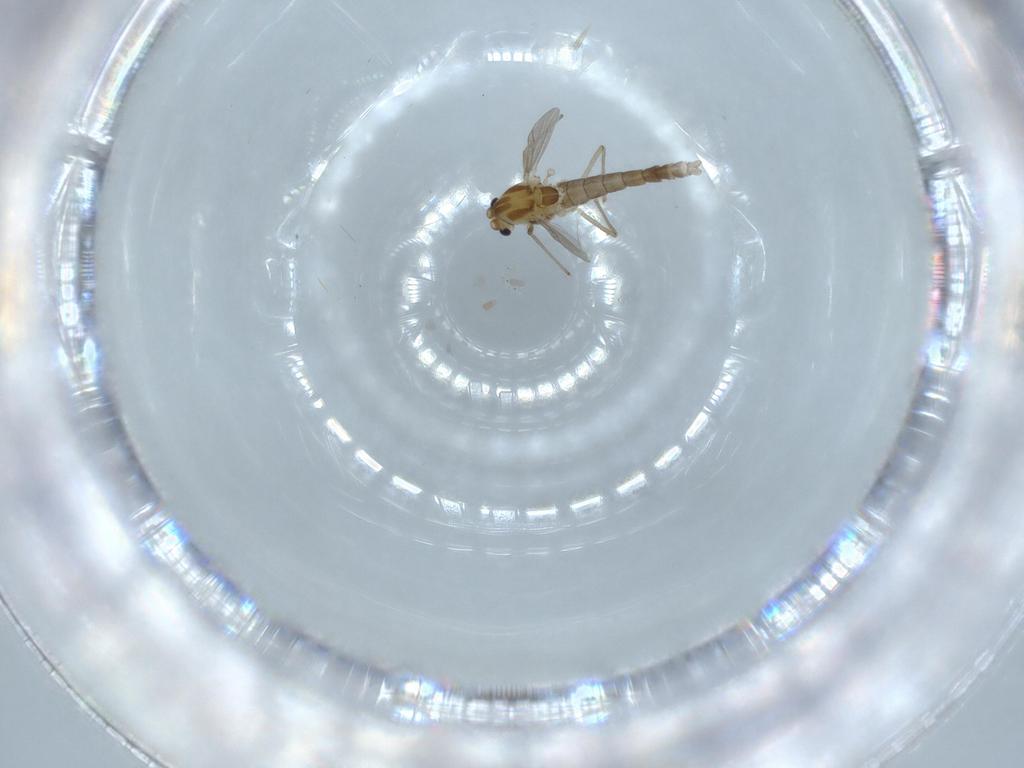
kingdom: Animalia
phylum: Arthropoda
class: Insecta
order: Diptera
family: Chironomidae
